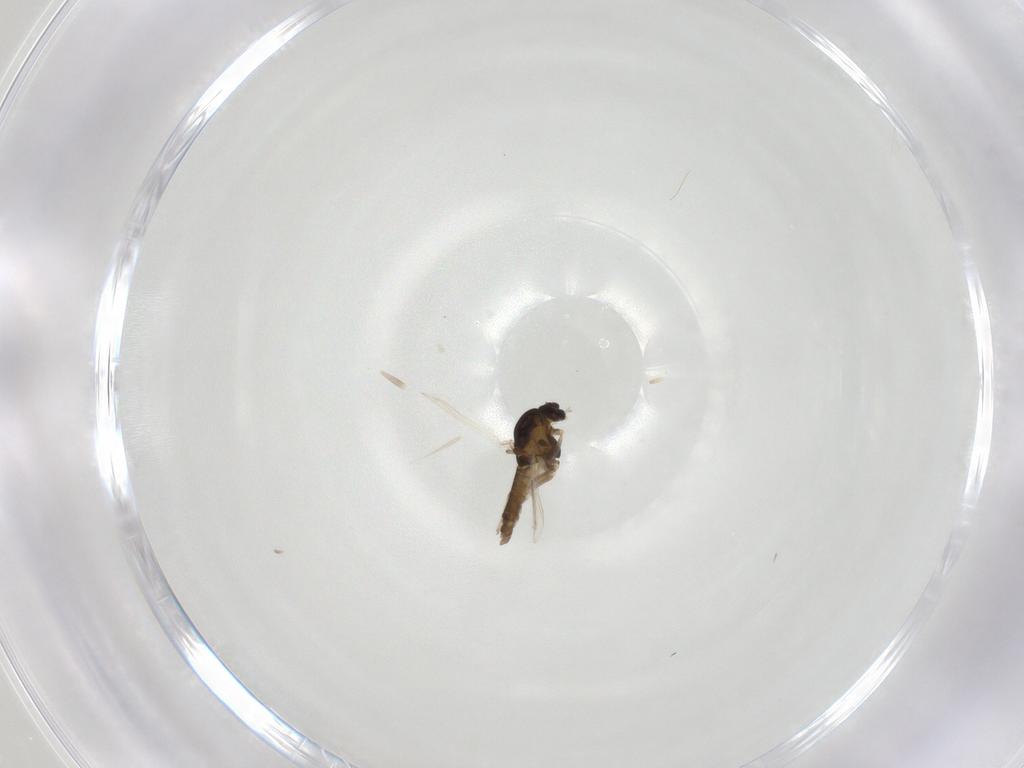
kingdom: Animalia
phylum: Arthropoda
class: Insecta
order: Diptera
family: Chironomidae
